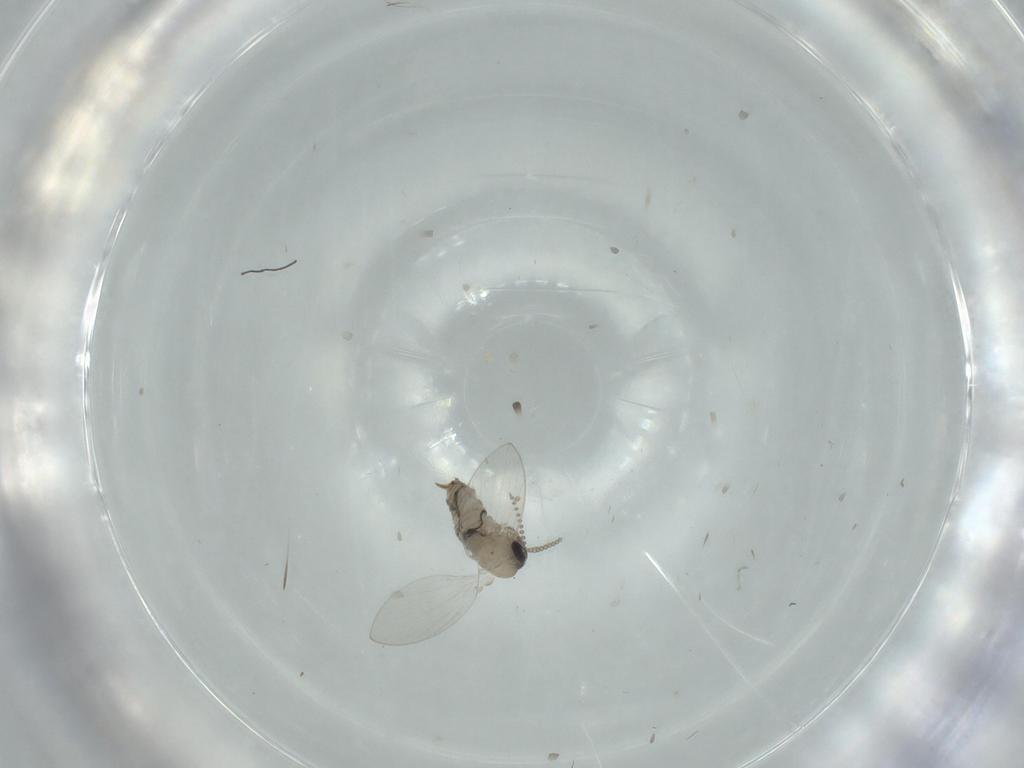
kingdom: Animalia
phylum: Arthropoda
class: Insecta
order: Diptera
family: Psychodidae
